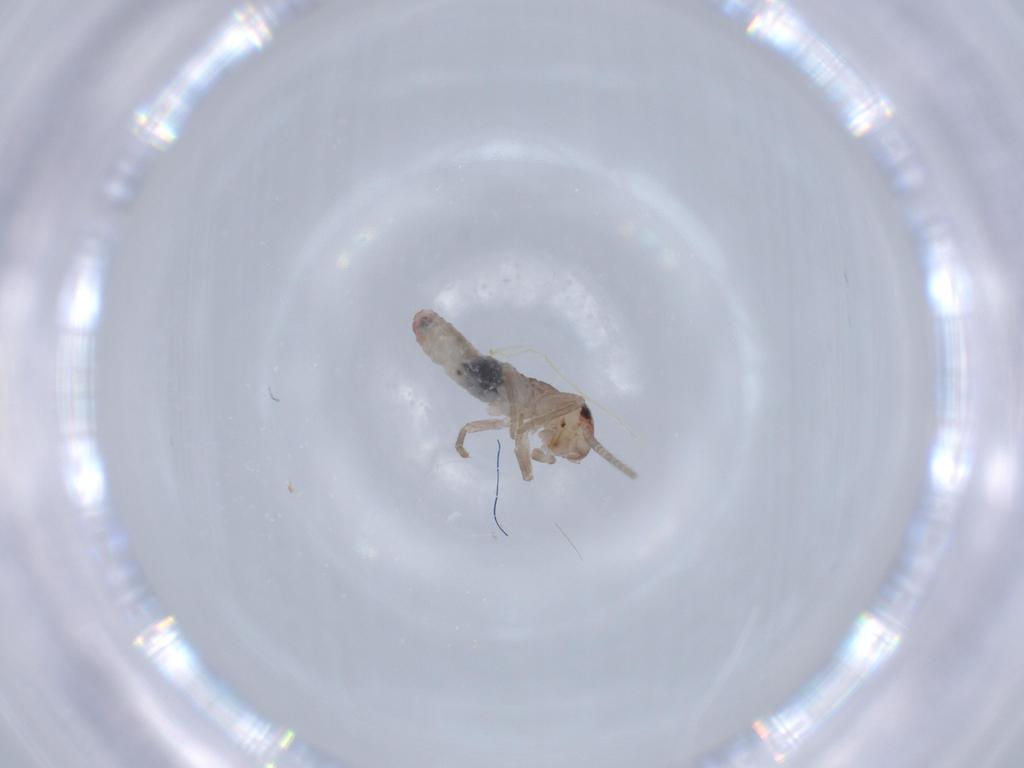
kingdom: Animalia
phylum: Arthropoda
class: Insecta
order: Orthoptera
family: Mogoplistidae
